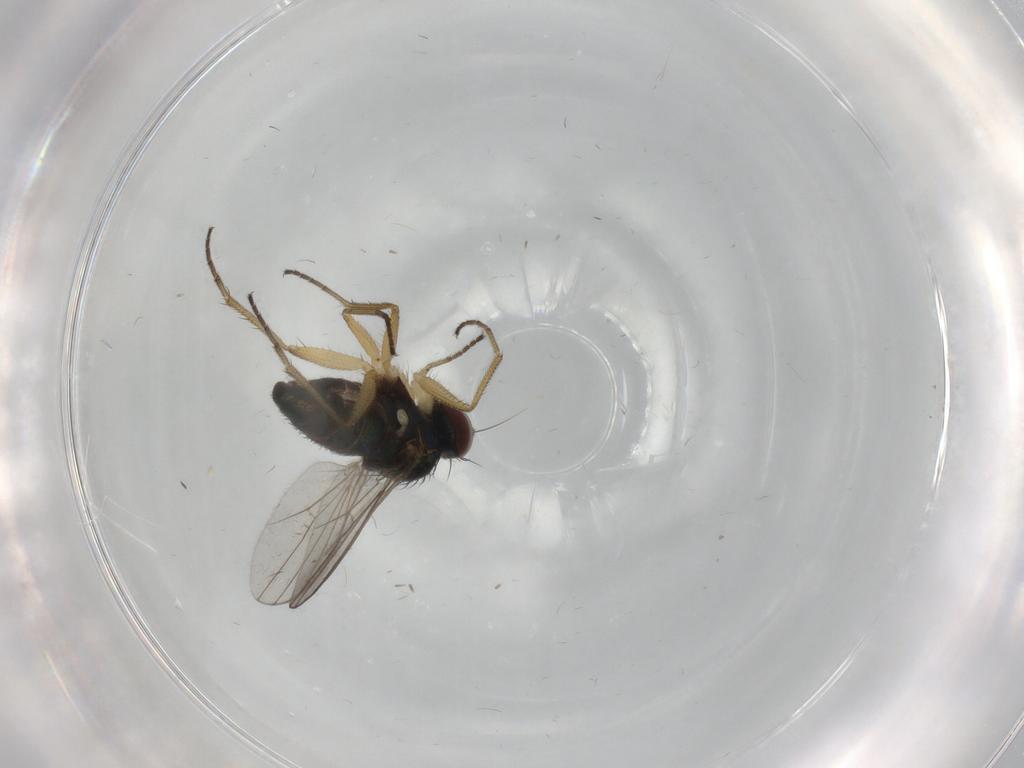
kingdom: Animalia
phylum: Arthropoda
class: Insecta
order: Diptera
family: Dolichopodidae
